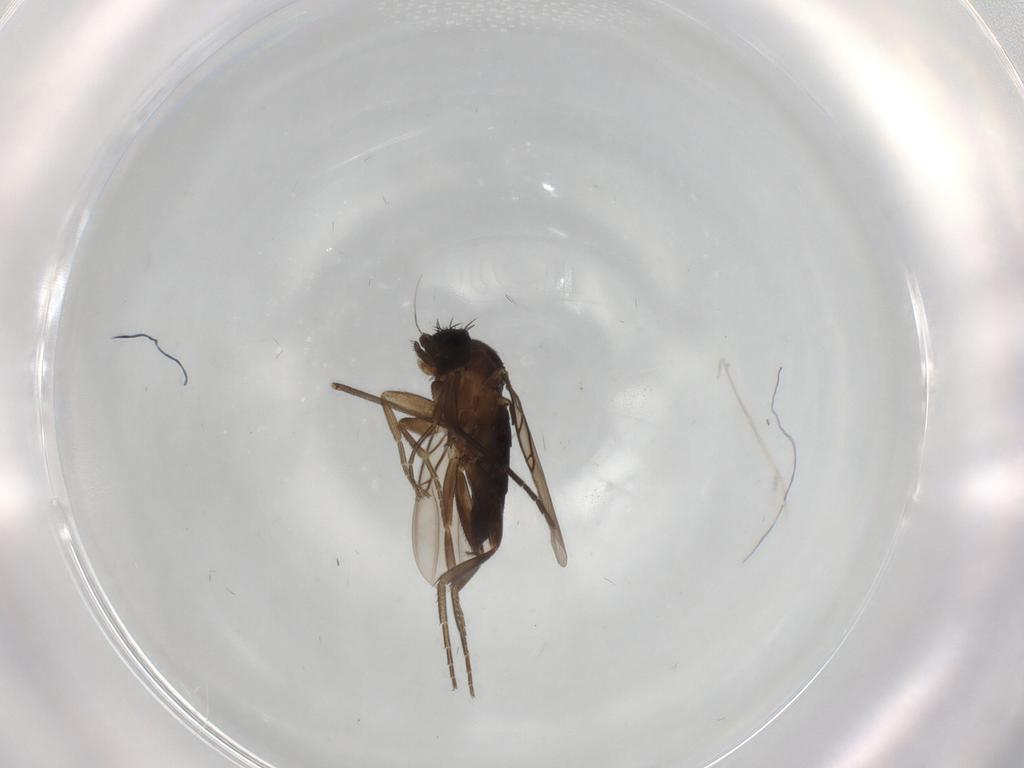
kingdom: Animalia
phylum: Arthropoda
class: Insecta
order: Diptera
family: Phoridae
